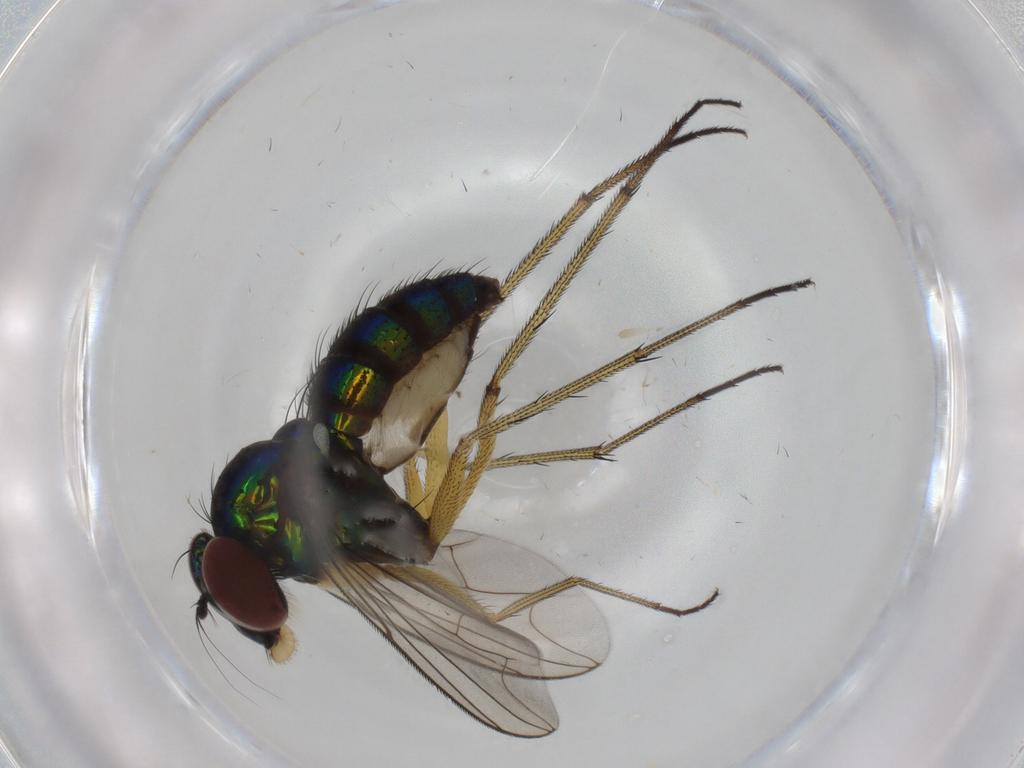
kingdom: Animalia
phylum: Arthropoda
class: Insecta
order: Diptera
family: Dolichopodidae
